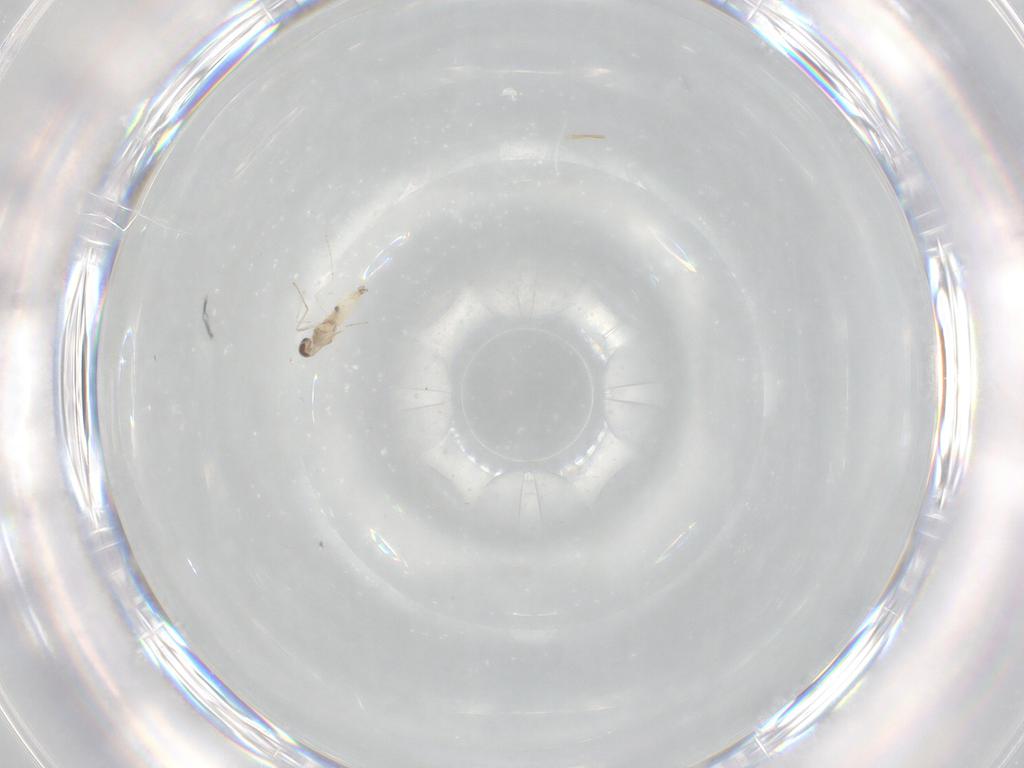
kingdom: Animalia
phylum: Arthropoda
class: Insecta
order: Diptera
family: Cecidomyiidae
